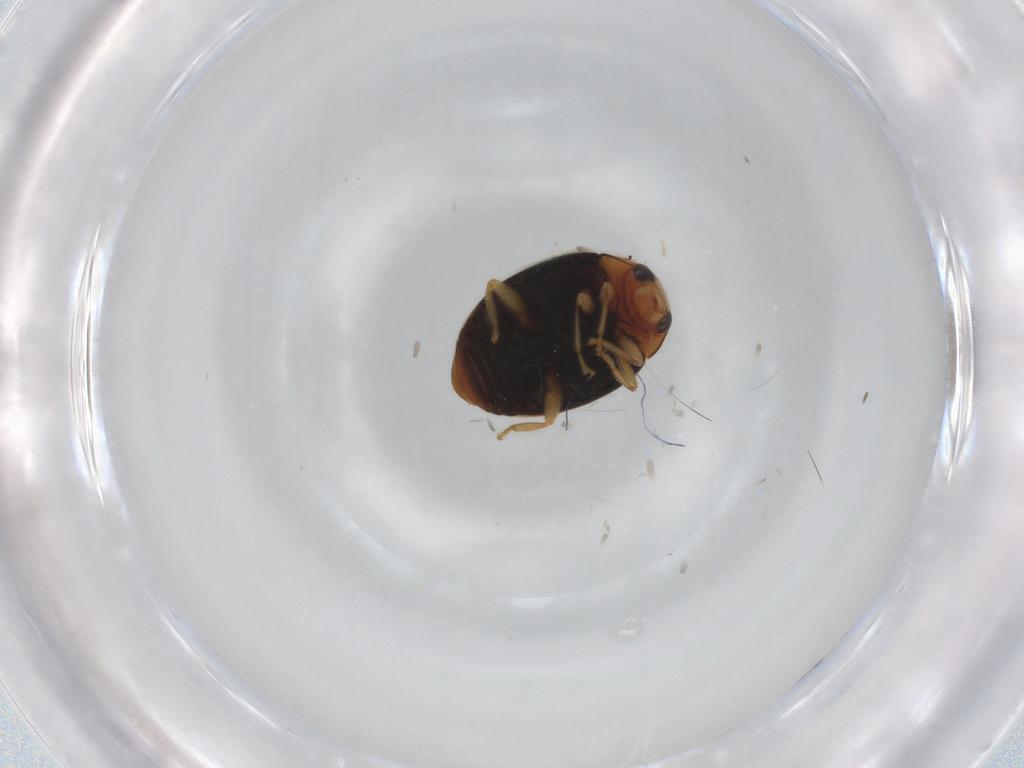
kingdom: Animalia
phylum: Arthropoda
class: Insecta
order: Coleoptera
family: Coccinellidae
